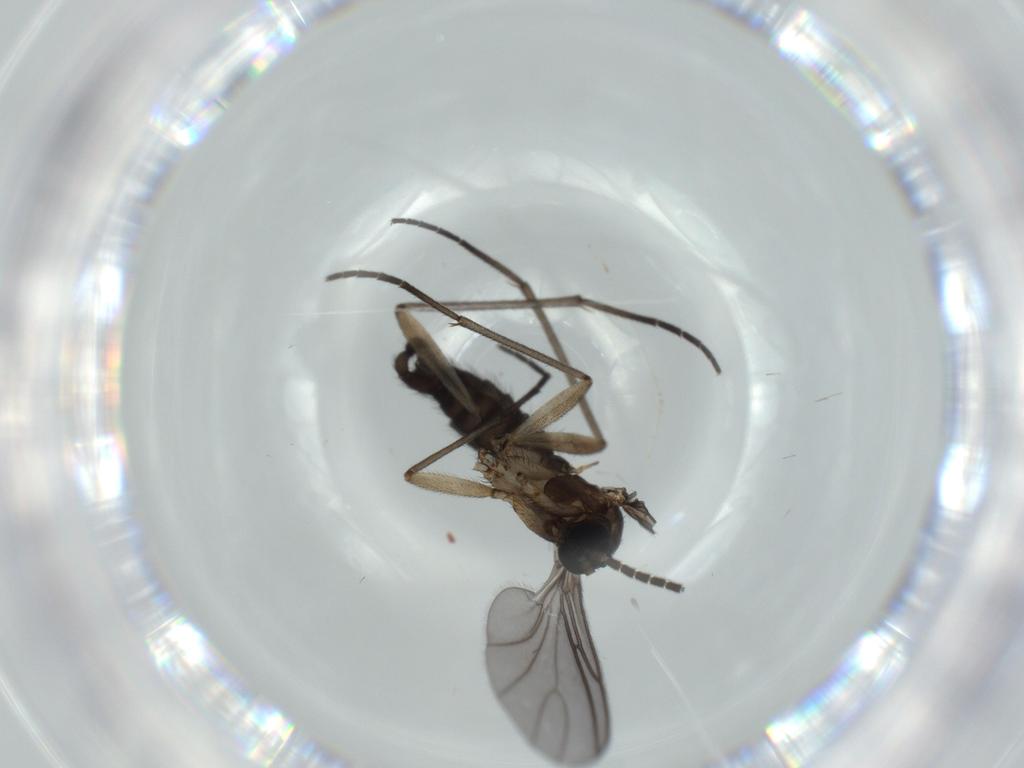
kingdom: Animalia
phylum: Arthropoda
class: Insecta
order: Diptera
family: Sciaridae
